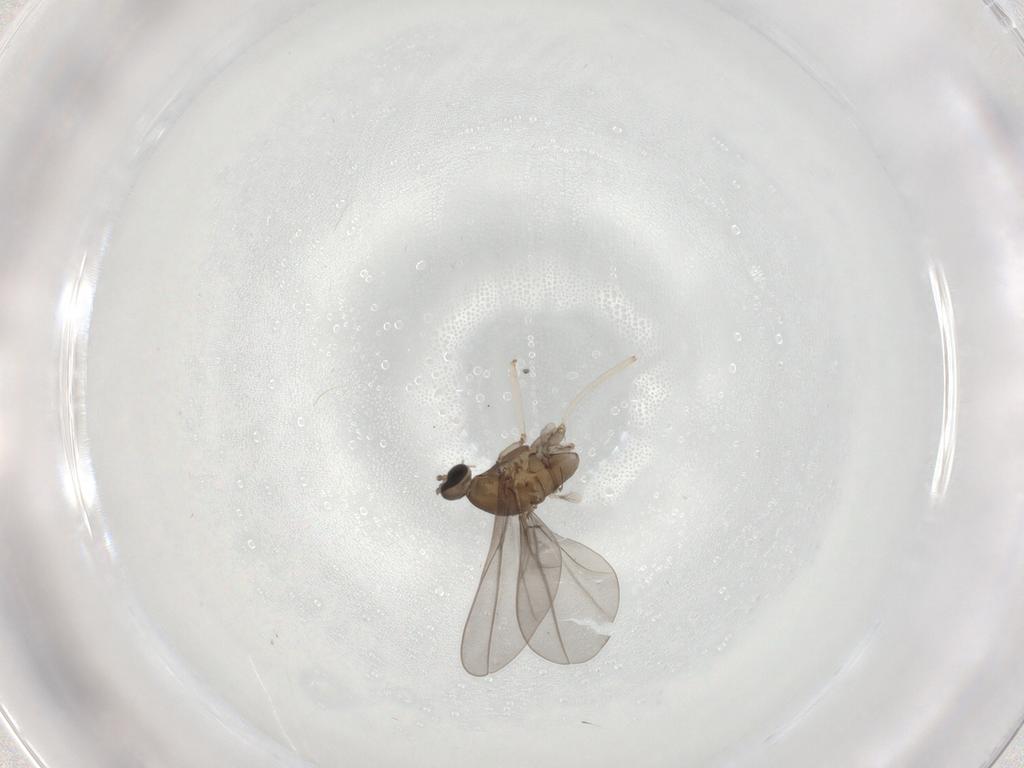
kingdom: Animalia
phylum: Arthropoda
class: Insecta
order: Diptera
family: Cecidomyiidae
